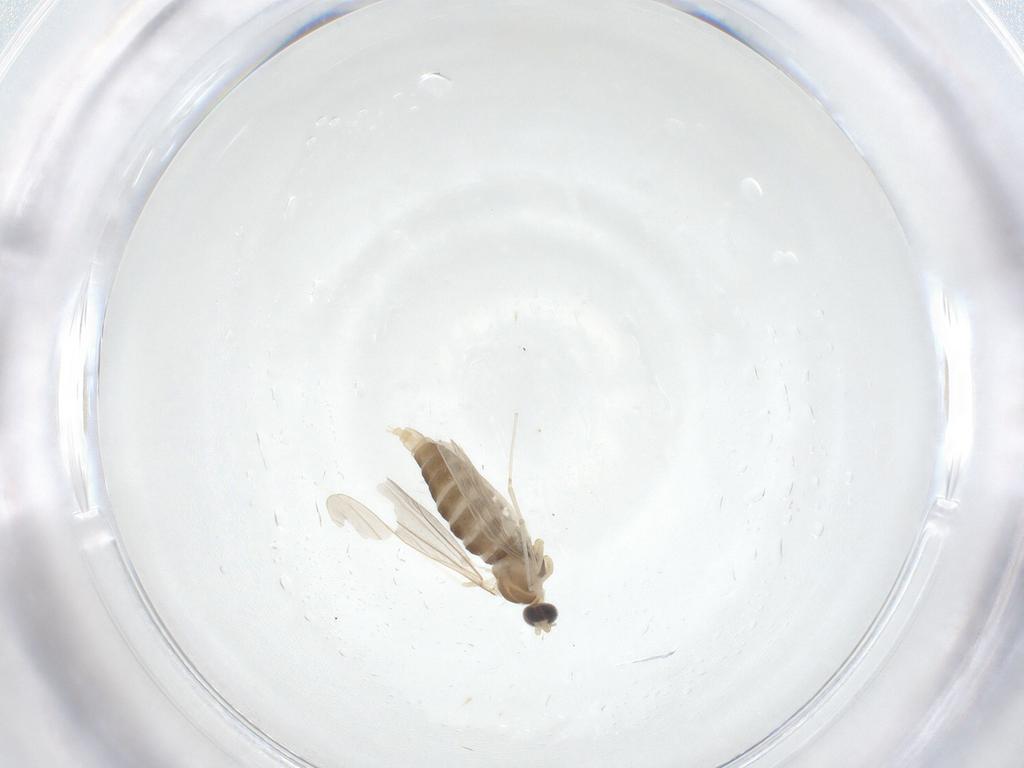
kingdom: Animalia
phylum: Arthropoda
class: Insecta
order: Diptera
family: Cecidomyiidae
